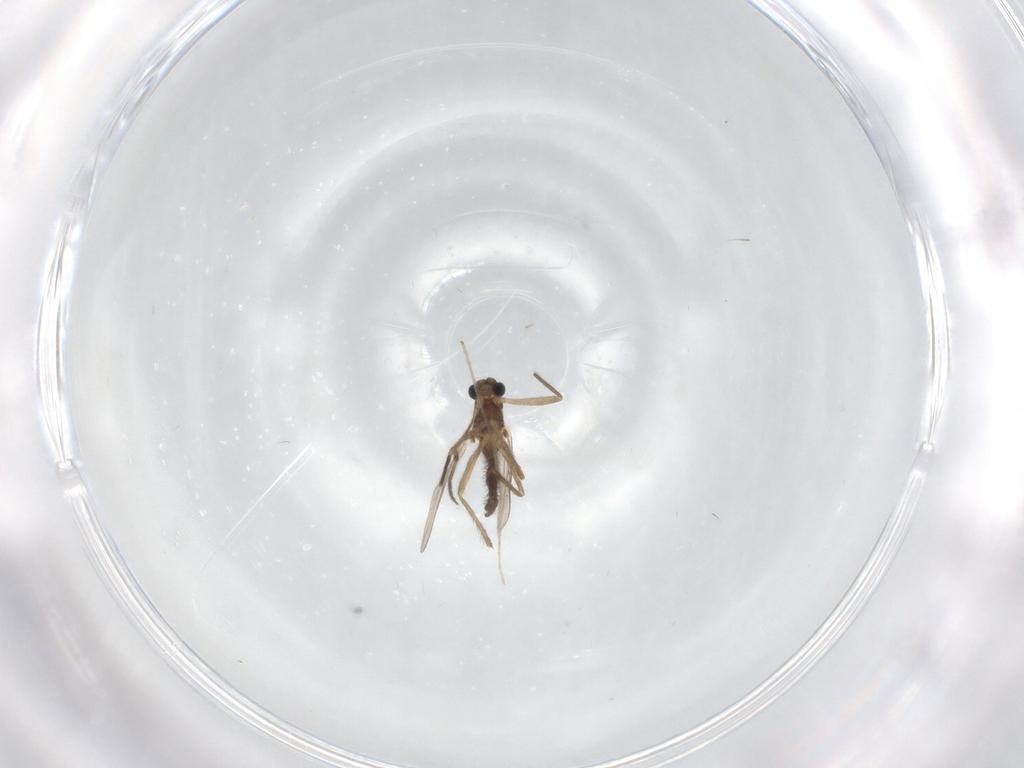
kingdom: Animalia
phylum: Arthropoda
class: Insecta
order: Diptera
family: Chironomidae
